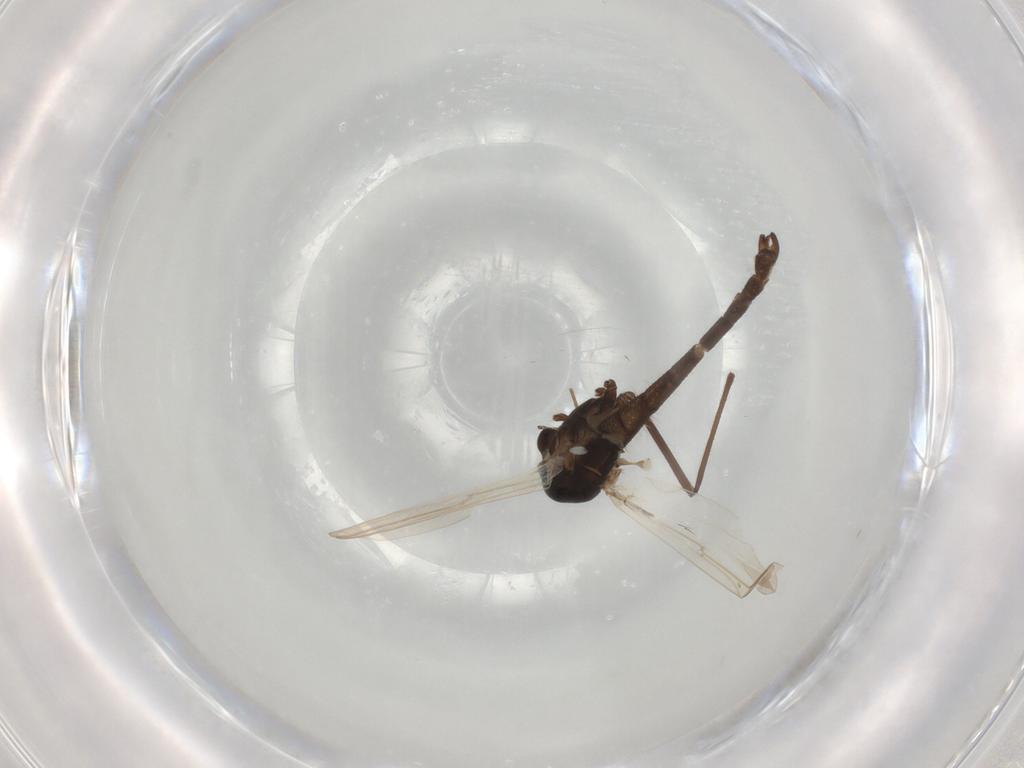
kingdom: Animalia
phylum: Arthropoda
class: Insecta
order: Diptera
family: Chironomidae
